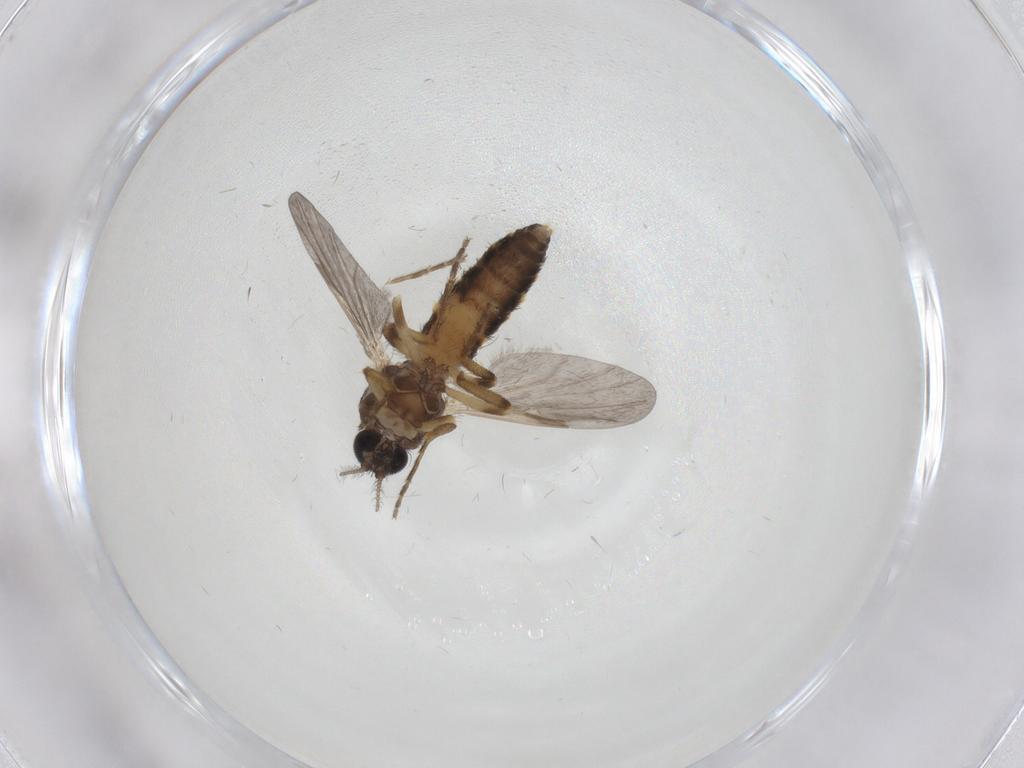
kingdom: Animalia
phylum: Arthropoda
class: Insecta
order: Diptera
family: Ceratopogonidae
